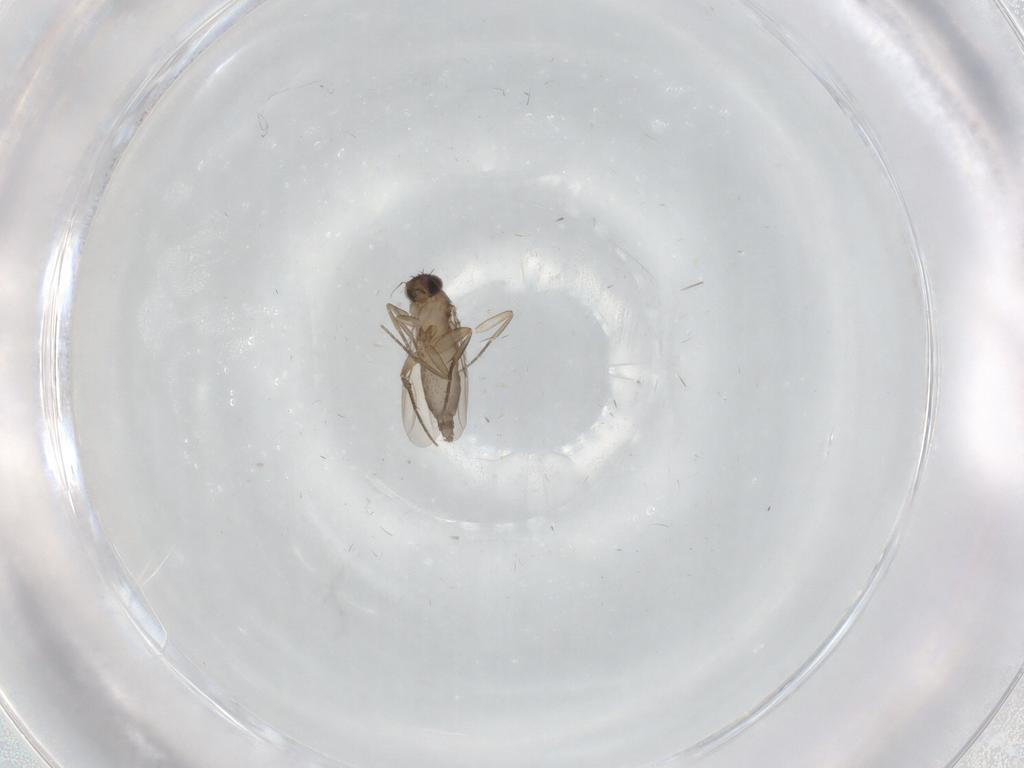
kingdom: Animalia
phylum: Arthropoda
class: Insecta
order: Diptera
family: Phoridae
